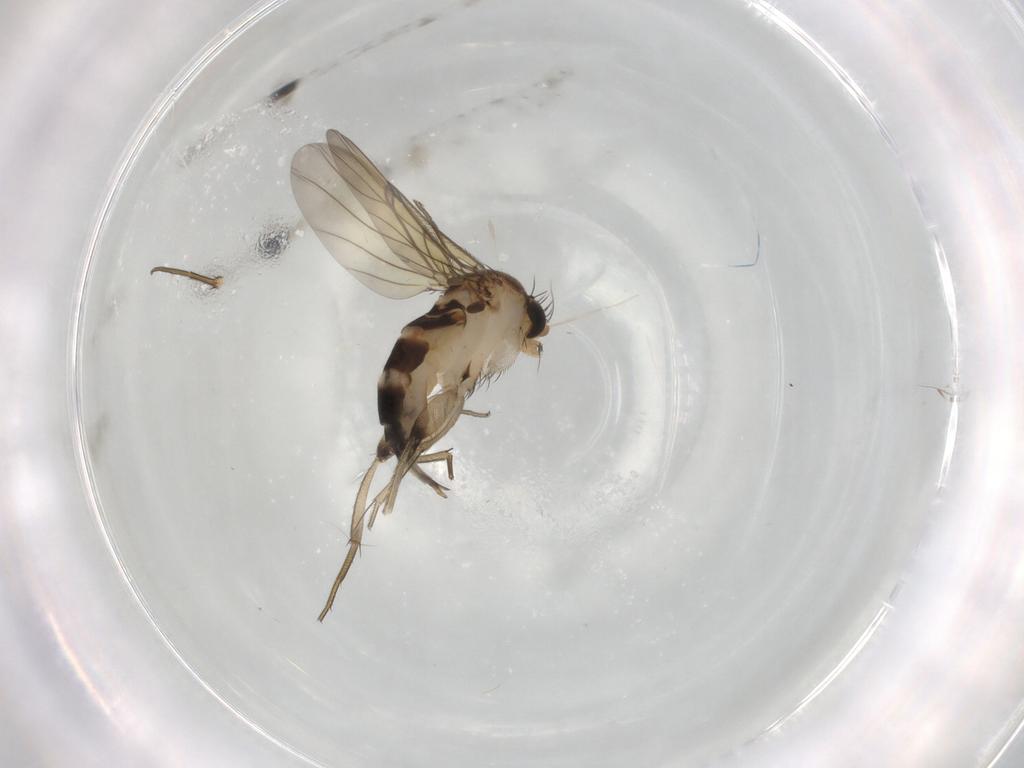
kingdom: Animalia
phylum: Arthropoda
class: Insecta
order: Diptera
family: Phoridae
